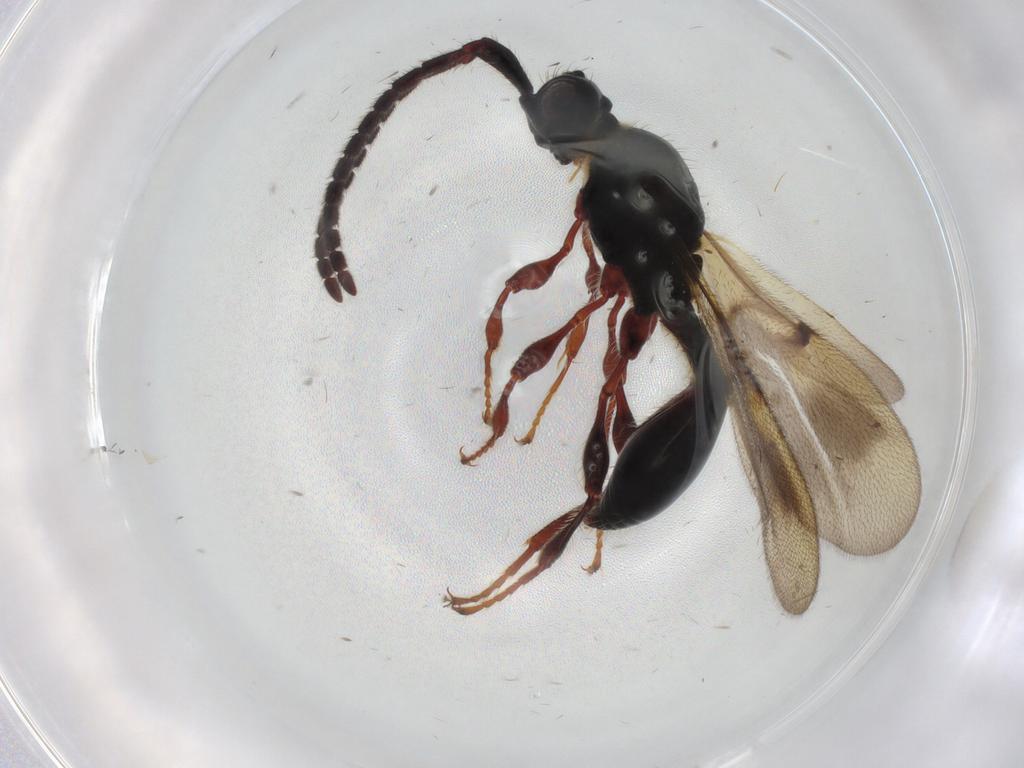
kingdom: Animalia
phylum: Arthropoda
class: Insecta
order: Hymenoptera
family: Diapriidae
